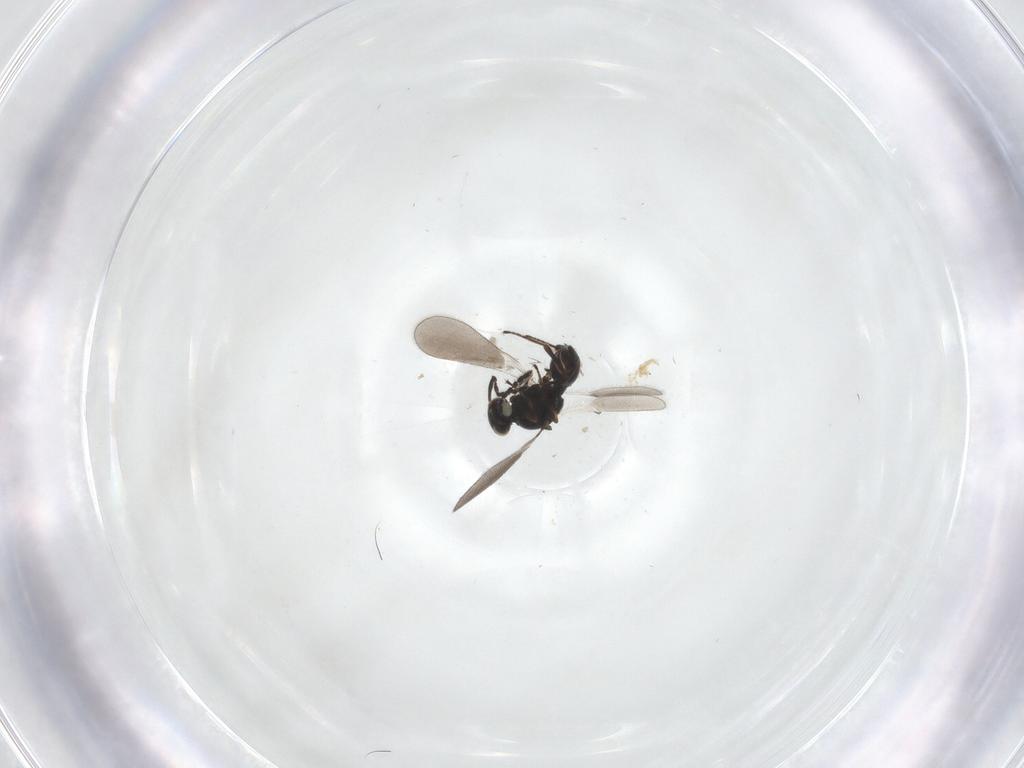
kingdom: Animalia
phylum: Arthropoda
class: Insecta
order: Hymenoptera
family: Platygastridae
